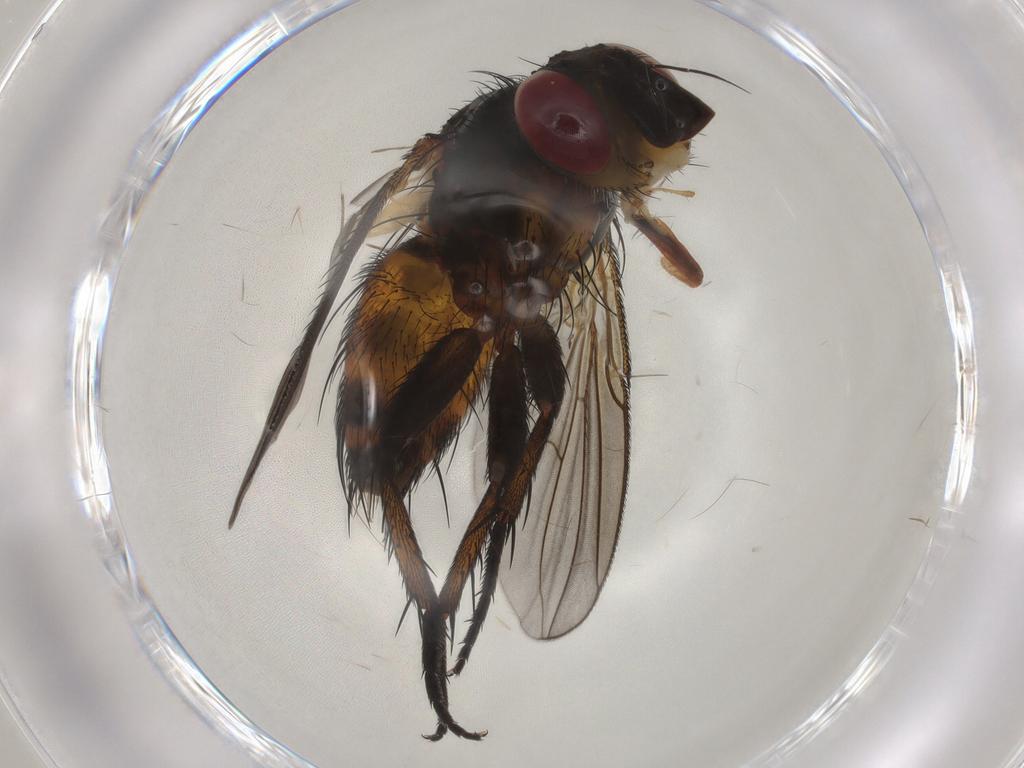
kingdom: Animalia
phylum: Arthropoda
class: Insecta
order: Diptera
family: Tachinidae
